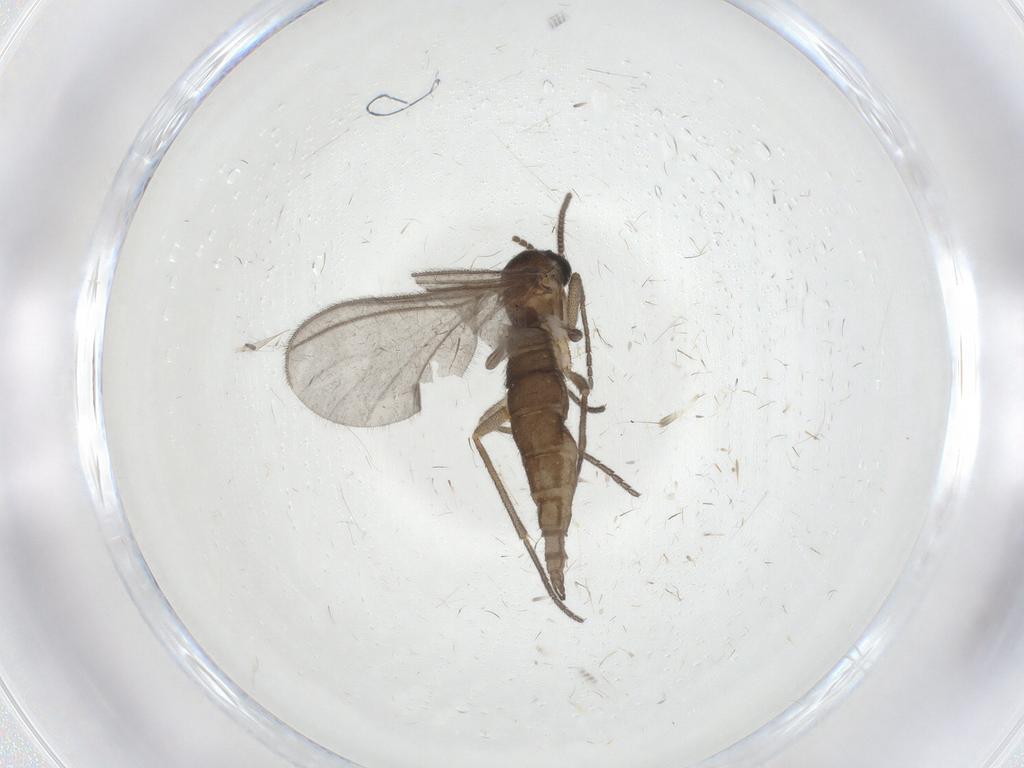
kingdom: Animalia
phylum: Arthropoda
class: Insecta
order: Diptera
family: Sciaridae
